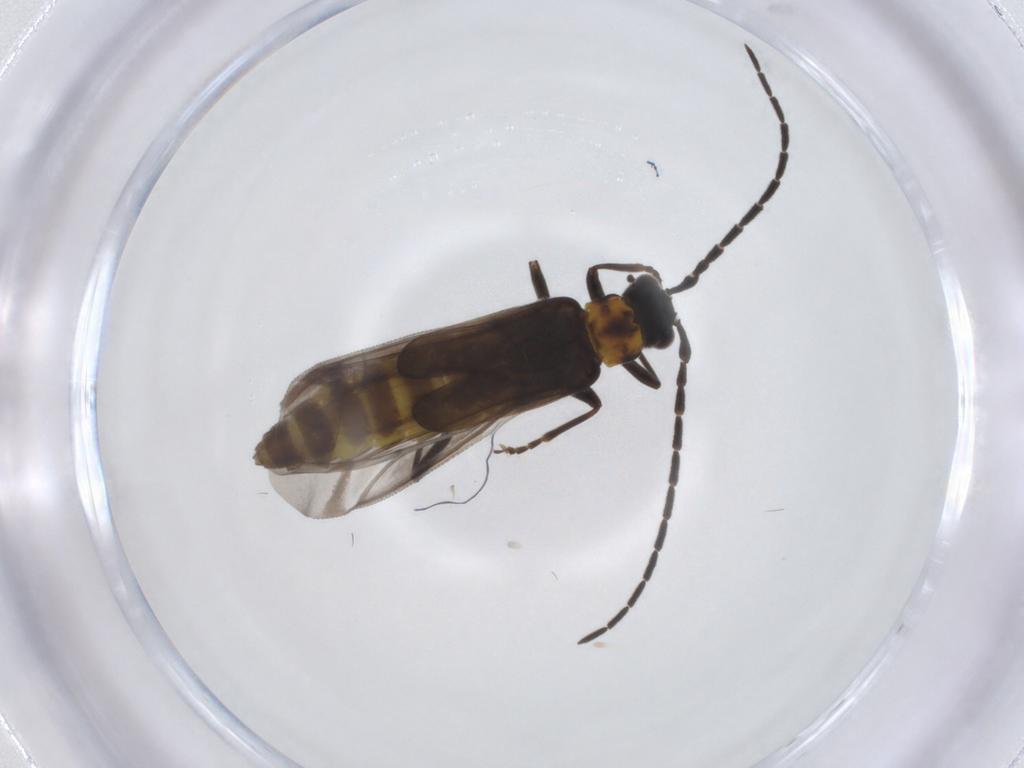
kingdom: Animalia
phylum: Arthropoda
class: Insecta
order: Coleoptera
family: Cantharidae
